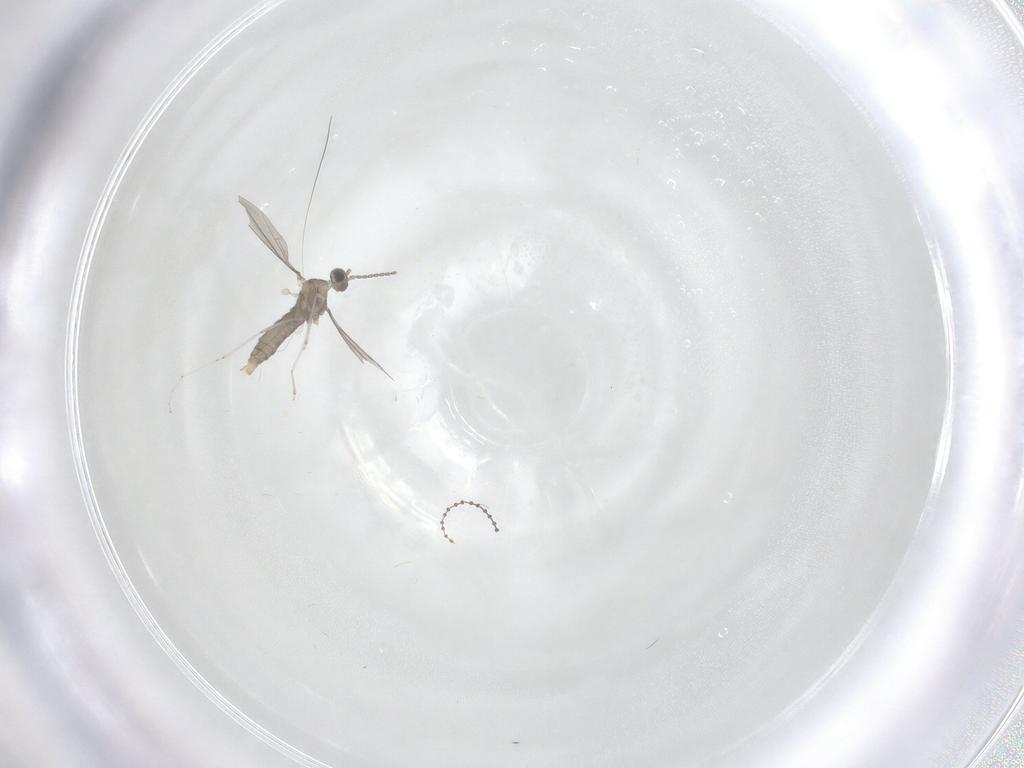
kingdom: Animalia
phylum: Arthropoda
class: Insecta
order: Diptera
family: Cecidomyiidae
